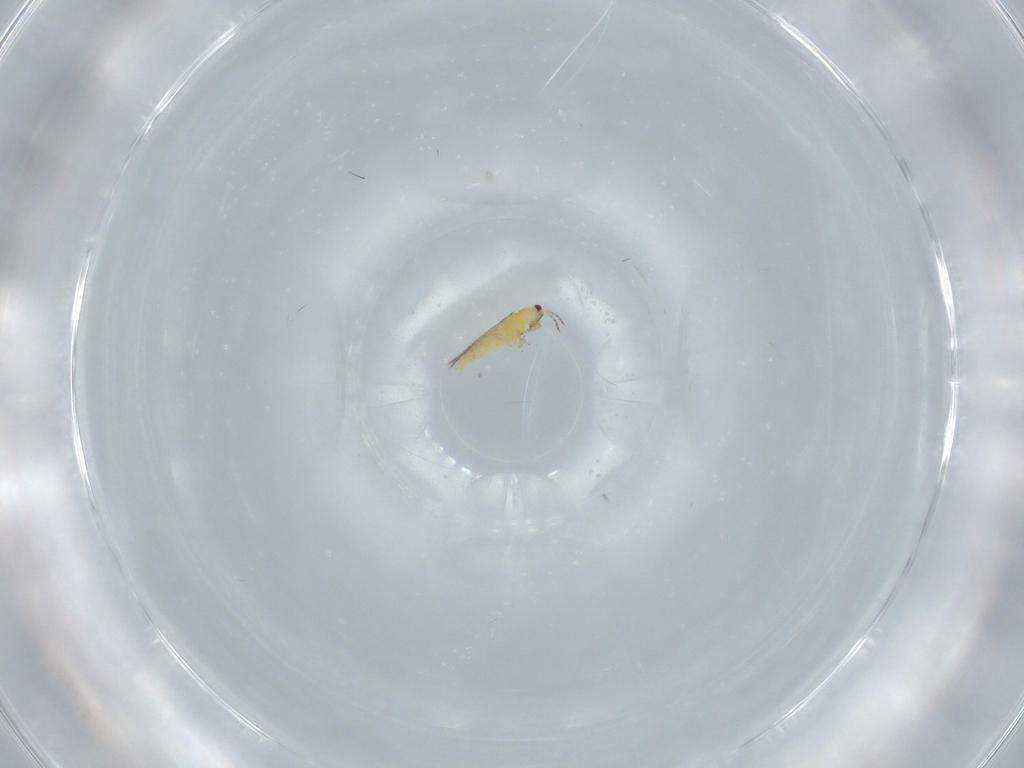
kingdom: Animalia
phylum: Arthropoda
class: Insecta
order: Thysanoptera
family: Thripidae
